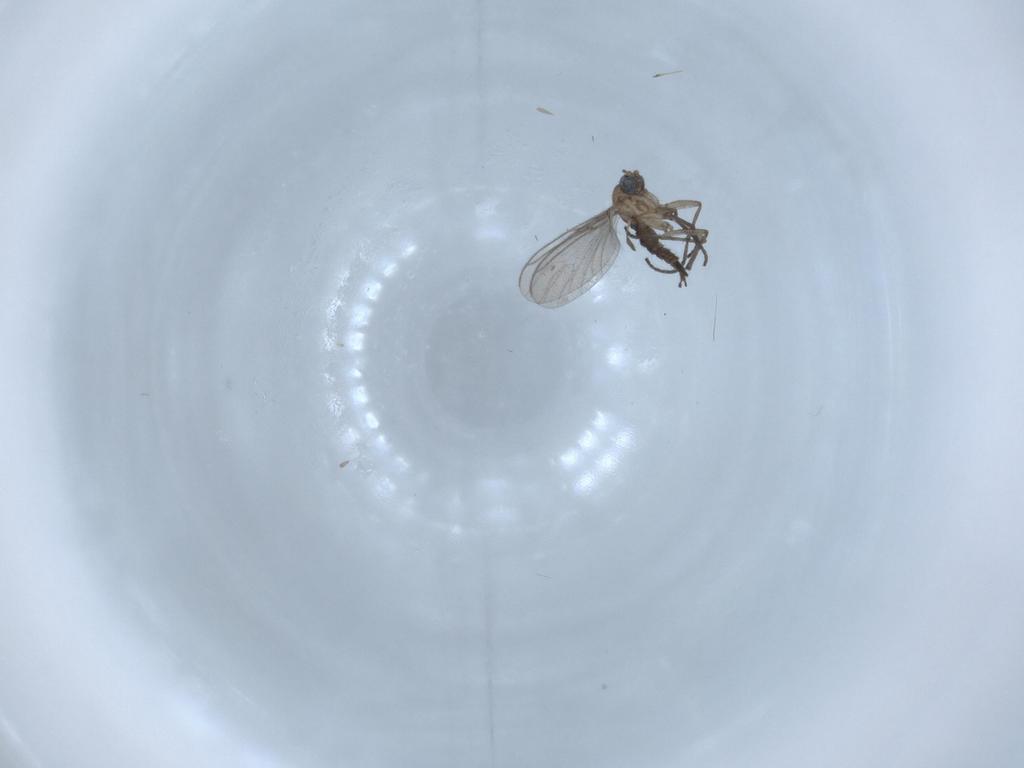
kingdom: Animalia
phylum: Arthropoda
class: Insecta
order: Diptera
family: Sciaridae
